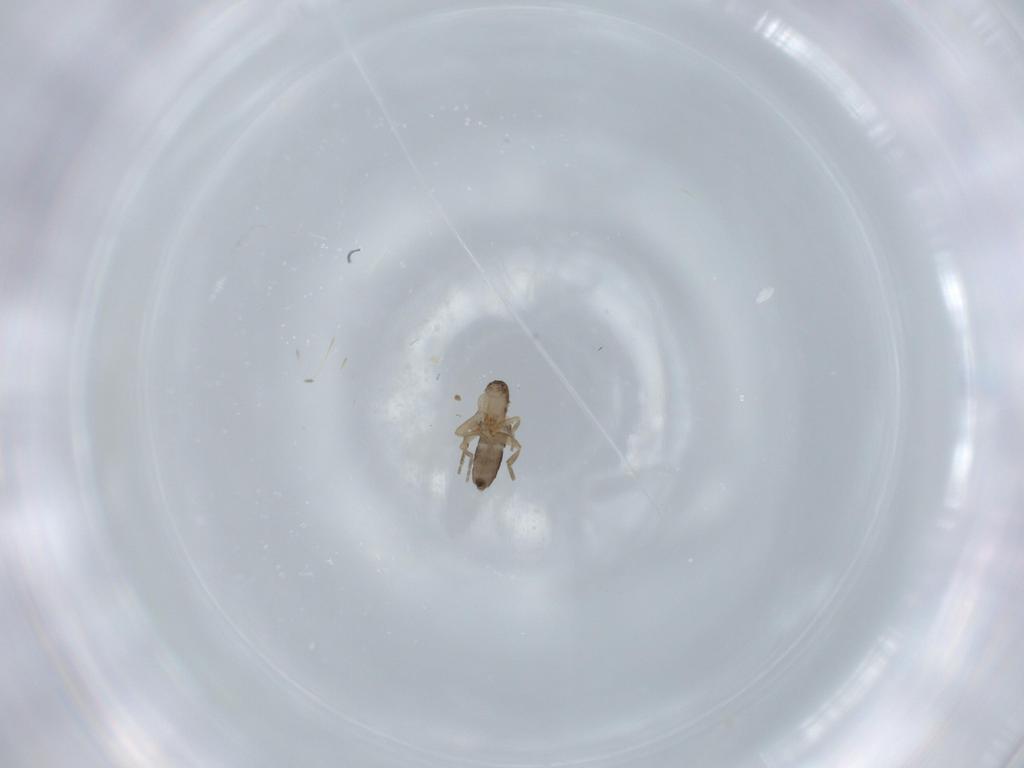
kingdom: Animalia
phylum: Arthropoda
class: Insecta
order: Diptera
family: Phoridae
